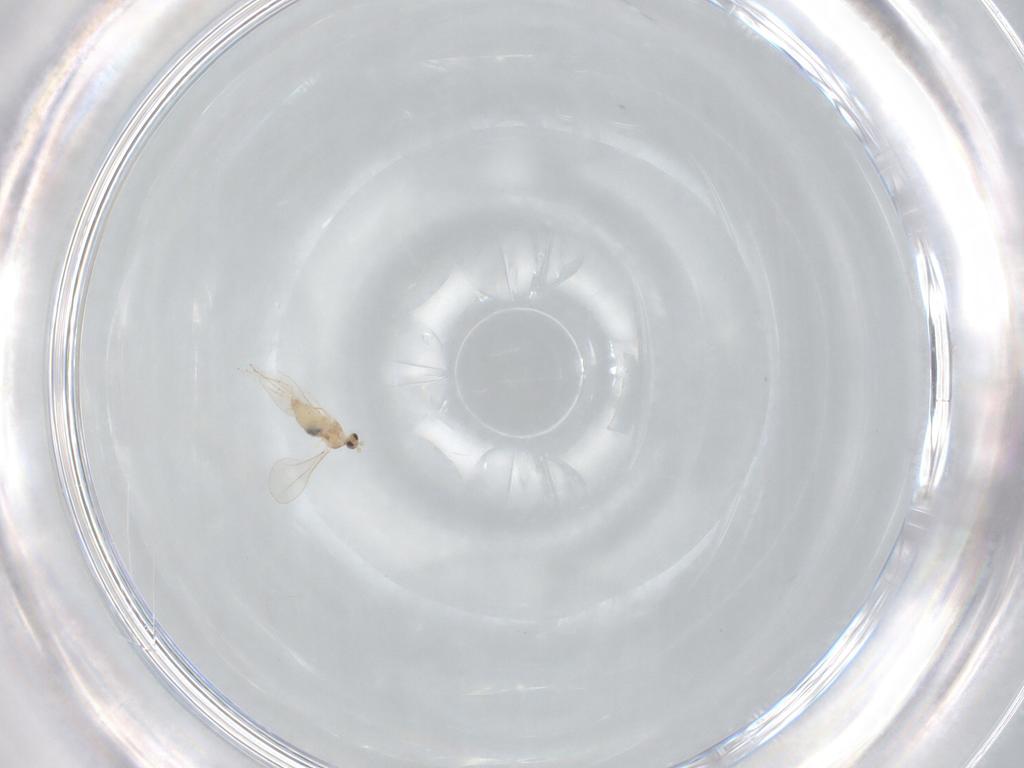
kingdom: Animalia
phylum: Arthropoda
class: Insecta
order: Diptera
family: Cecidomyiidae
